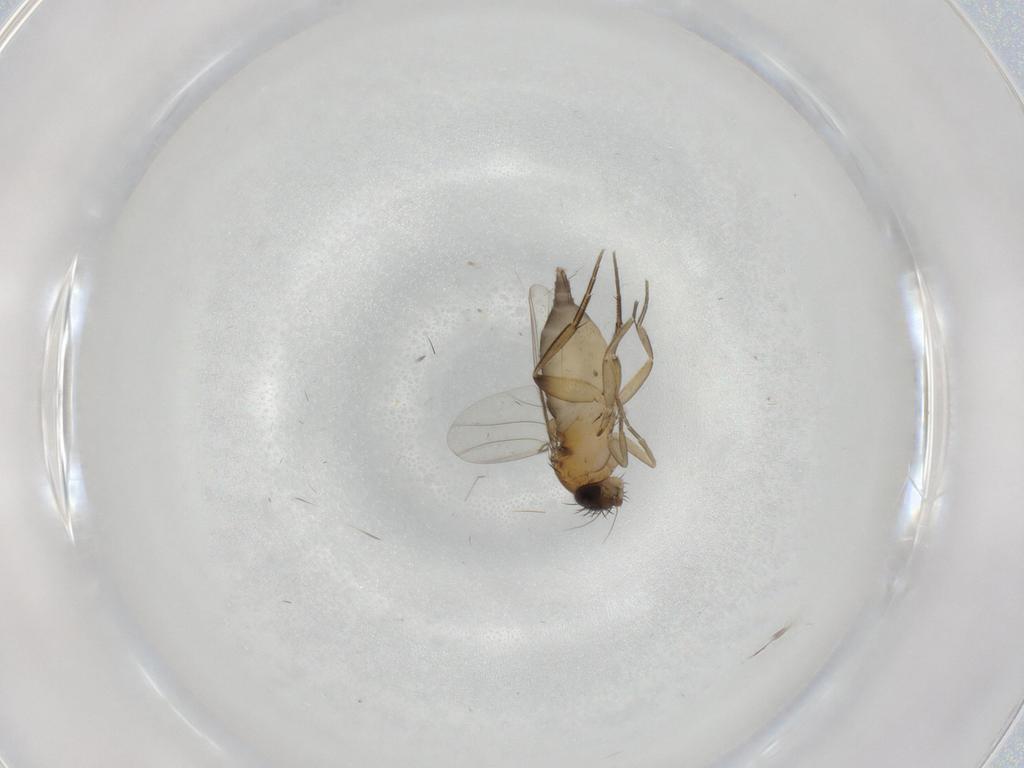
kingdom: Animalia
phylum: Arthropoda
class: Insecta
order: Diptera
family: Phoridae
